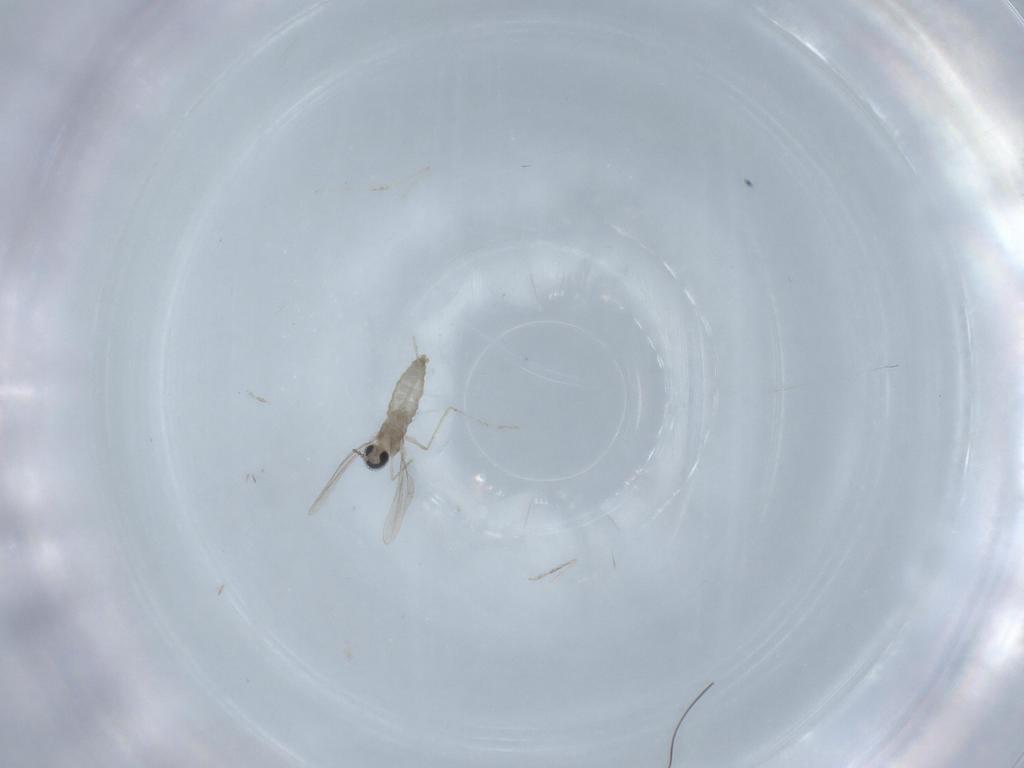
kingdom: Animalia
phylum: Arthropoda
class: Insecta
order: Diptera
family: Cecidomyiidae
